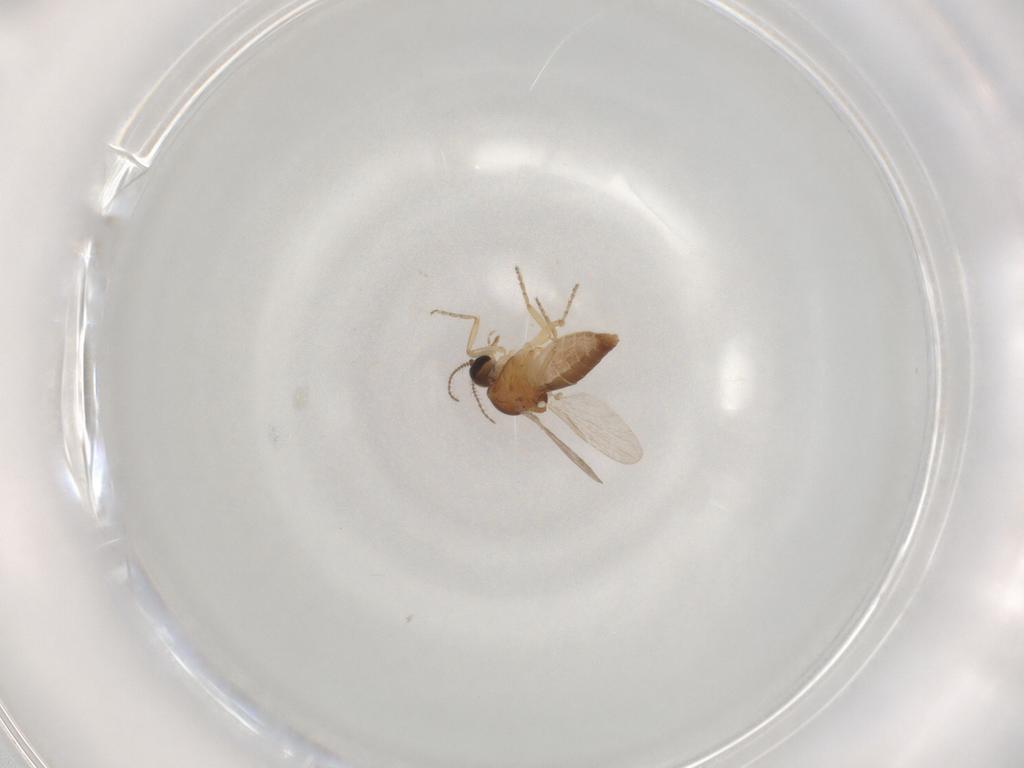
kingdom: Animalia
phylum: Arthropoda
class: Insecta
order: Diptera
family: Ceratopogonidae
